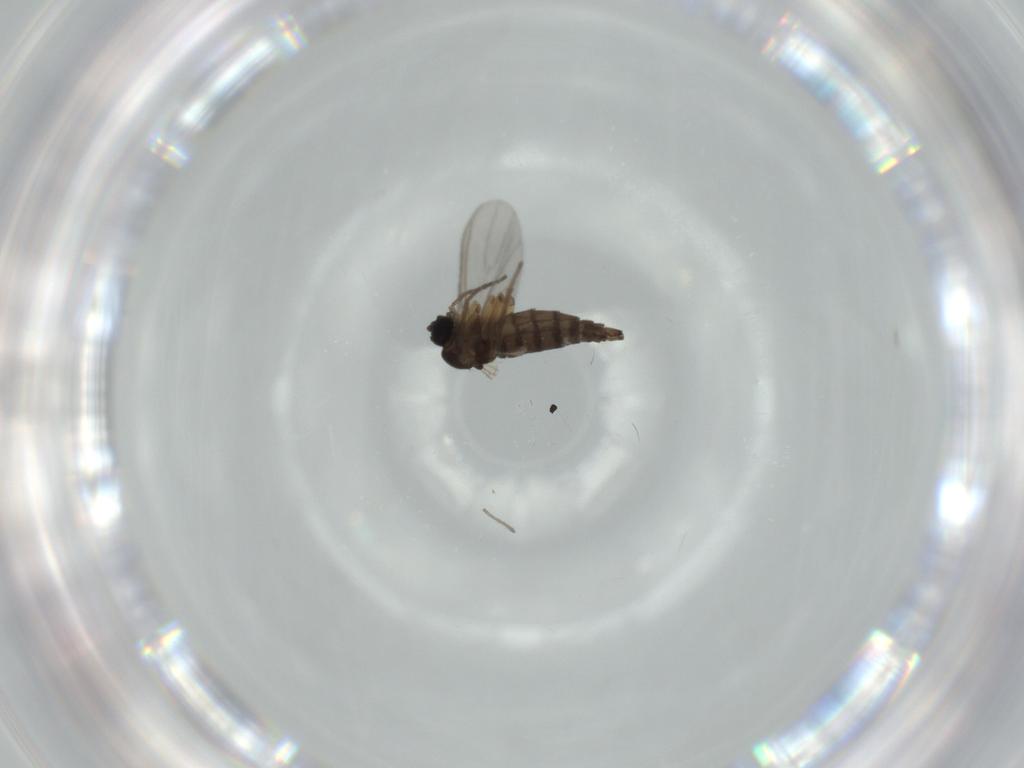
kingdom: Animalia
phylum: Arthropoda
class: Insecta
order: Diptera
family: Sciaridae
